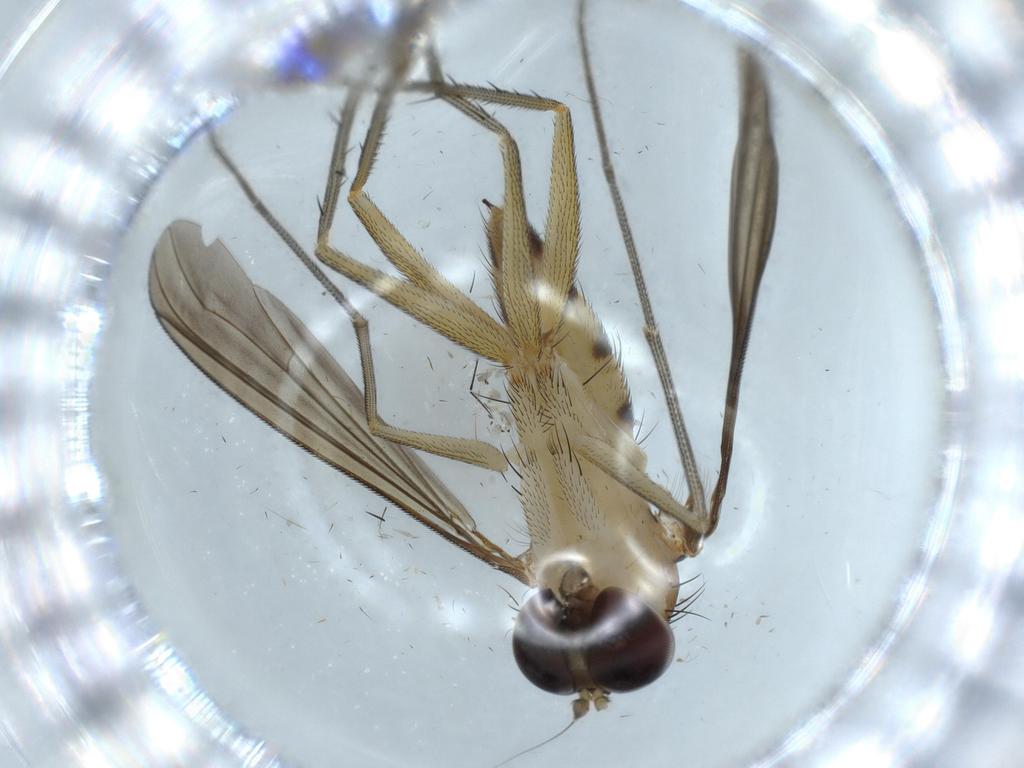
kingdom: Animalia
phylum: Arthropoda
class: Insecta
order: Diptera
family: Dolichopodidae
